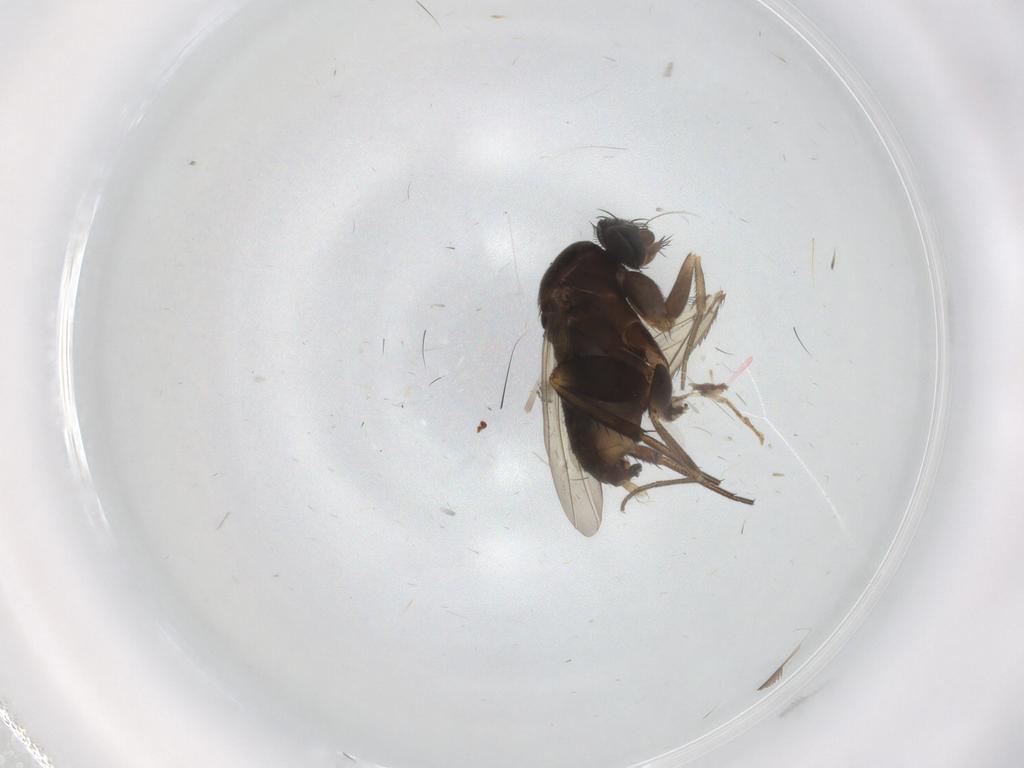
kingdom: Animalia
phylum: Arthropoda
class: Insecta
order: Diptera
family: Phoridae
